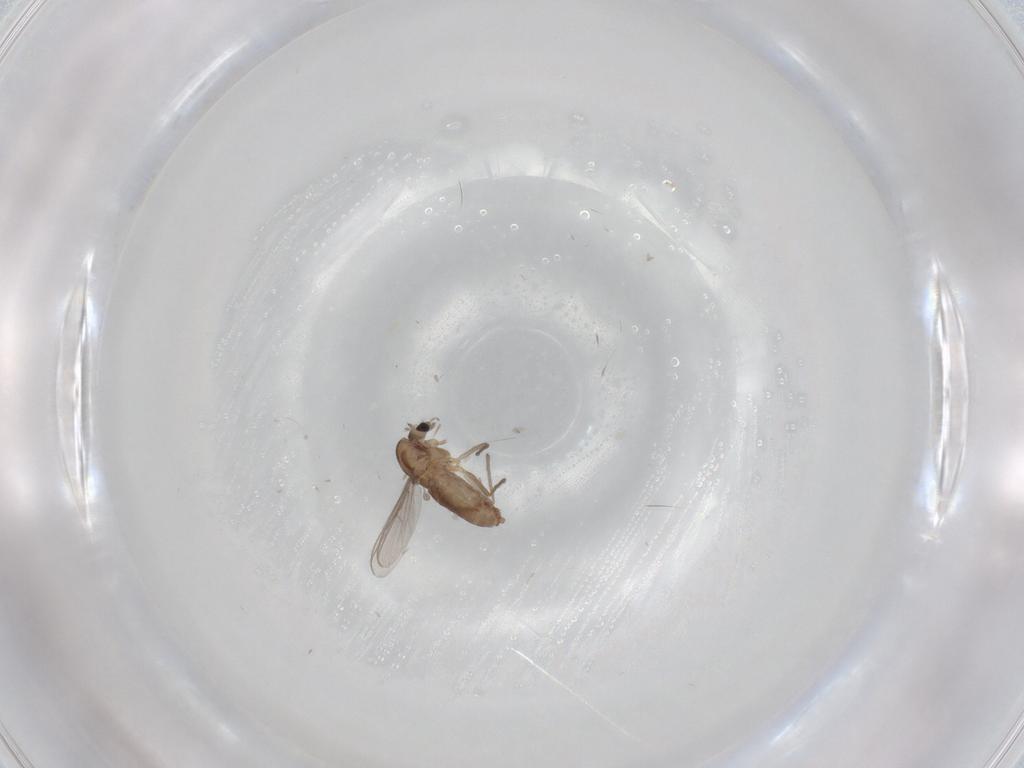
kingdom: Animalia
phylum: Arthropoda
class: Insecta
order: Diptera
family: Chironomidae
